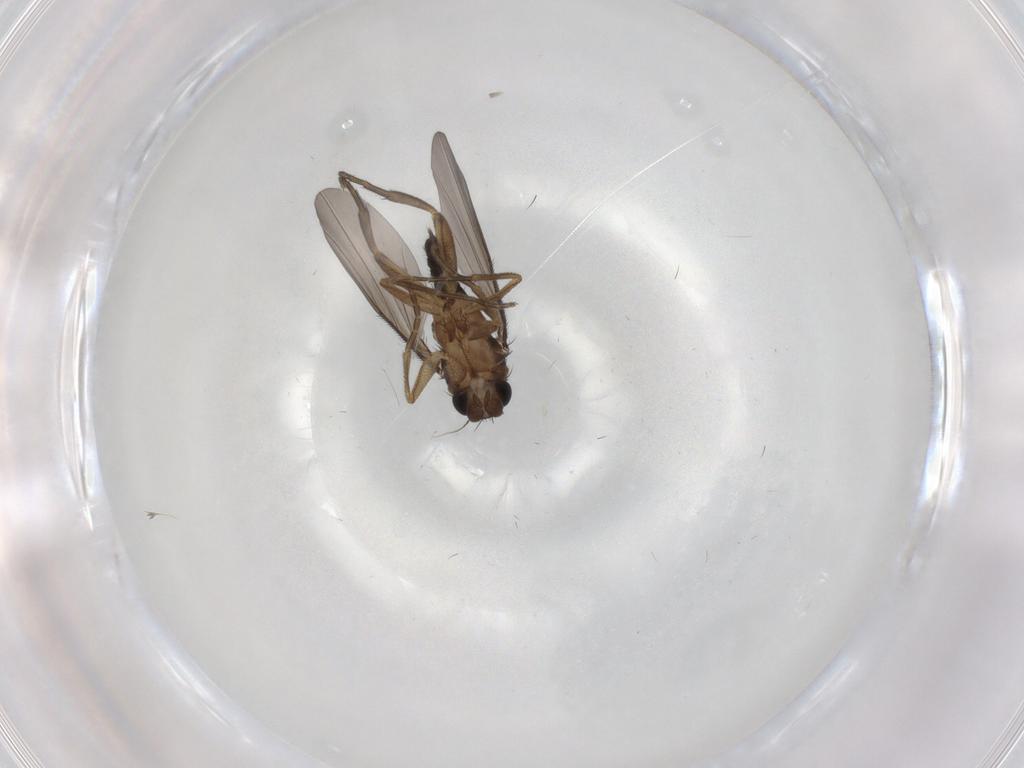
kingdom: Animalia
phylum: Arthropoda
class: Insecta
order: Diptera
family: Phoridae
